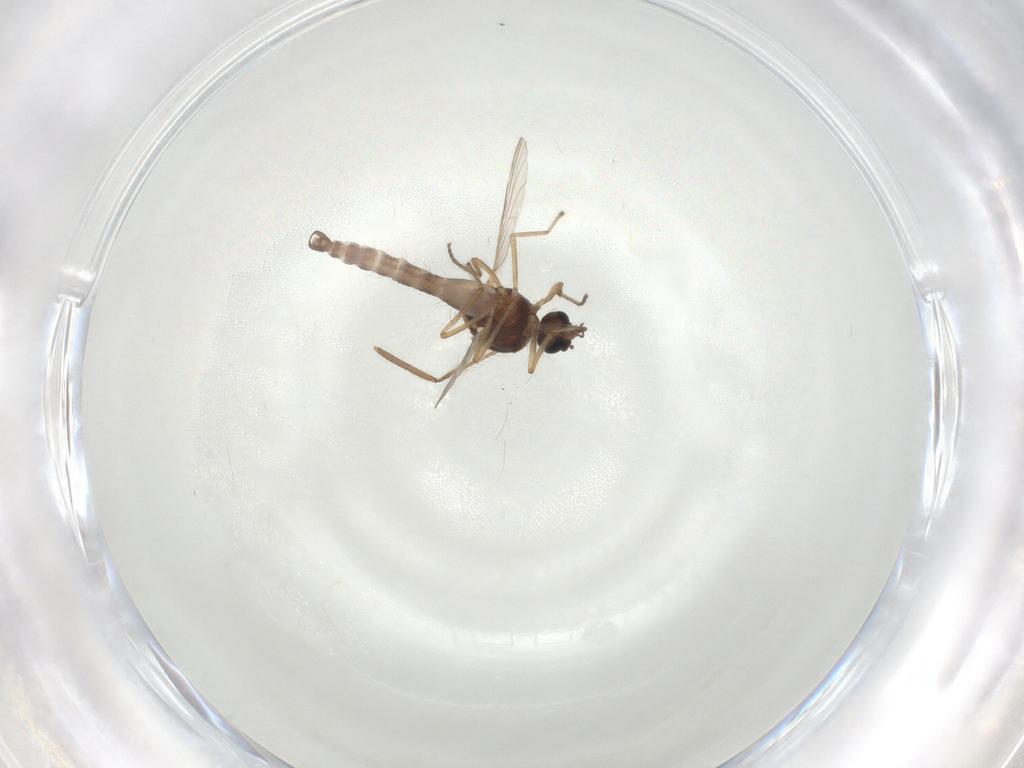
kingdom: Animalia
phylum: Arthropoda
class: Insecta
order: Diptera
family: Ceratopogonidae
